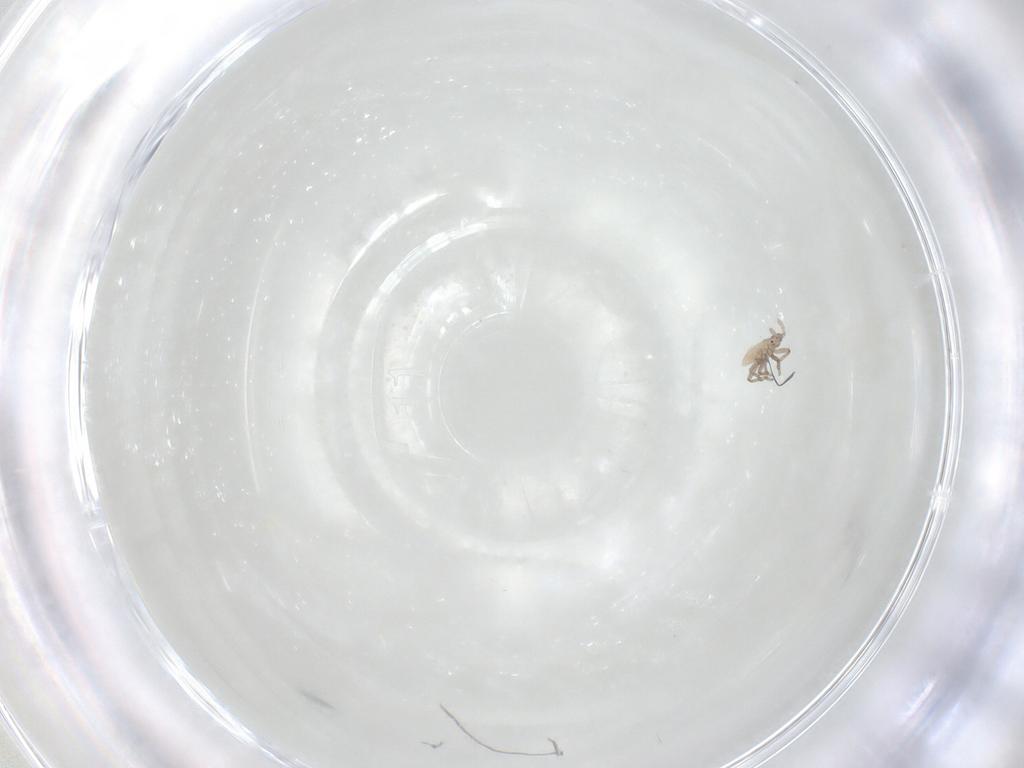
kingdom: Animalia
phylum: Arthropoda
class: Insecta
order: Hemiptera
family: Aphididae
